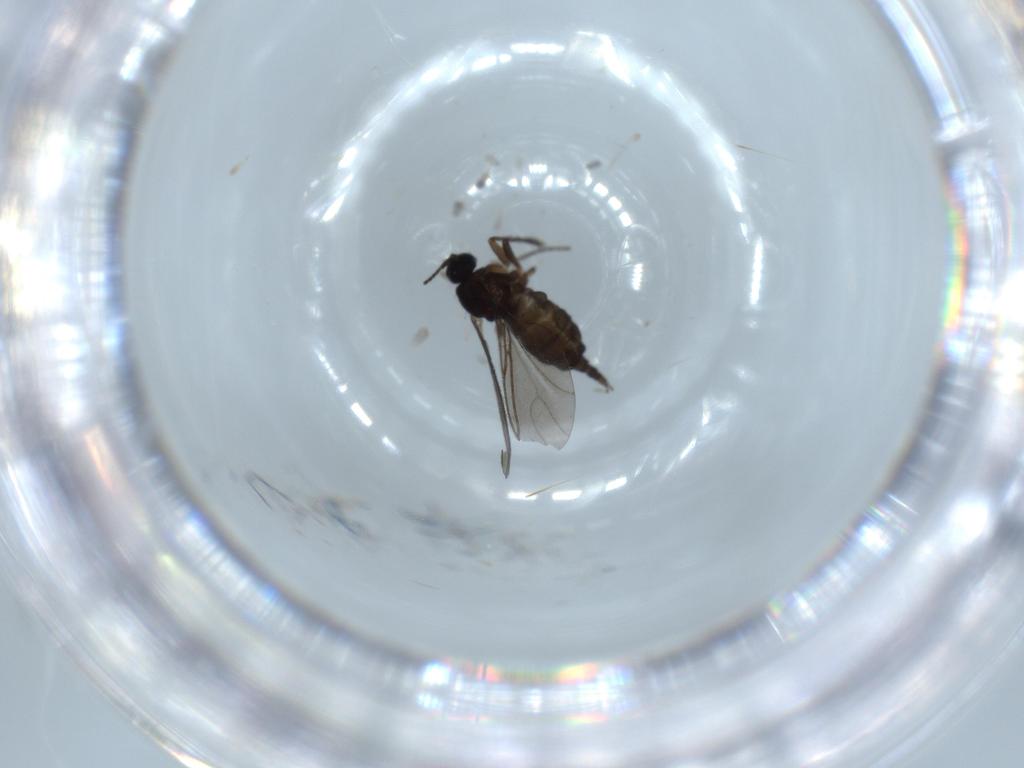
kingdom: Animalia
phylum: Arthropoda
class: Insecta
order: Diptera
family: Sciaridae
